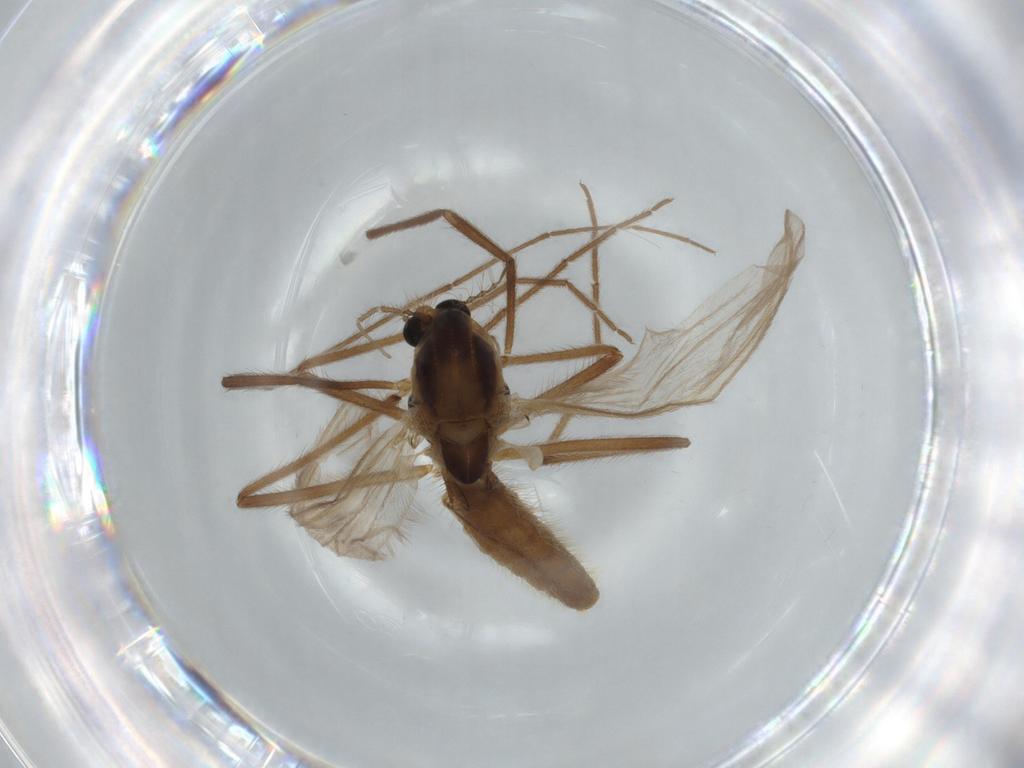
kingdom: Animalia
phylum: Arthropoda
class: Insecta
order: Diptera
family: Chironomidae
